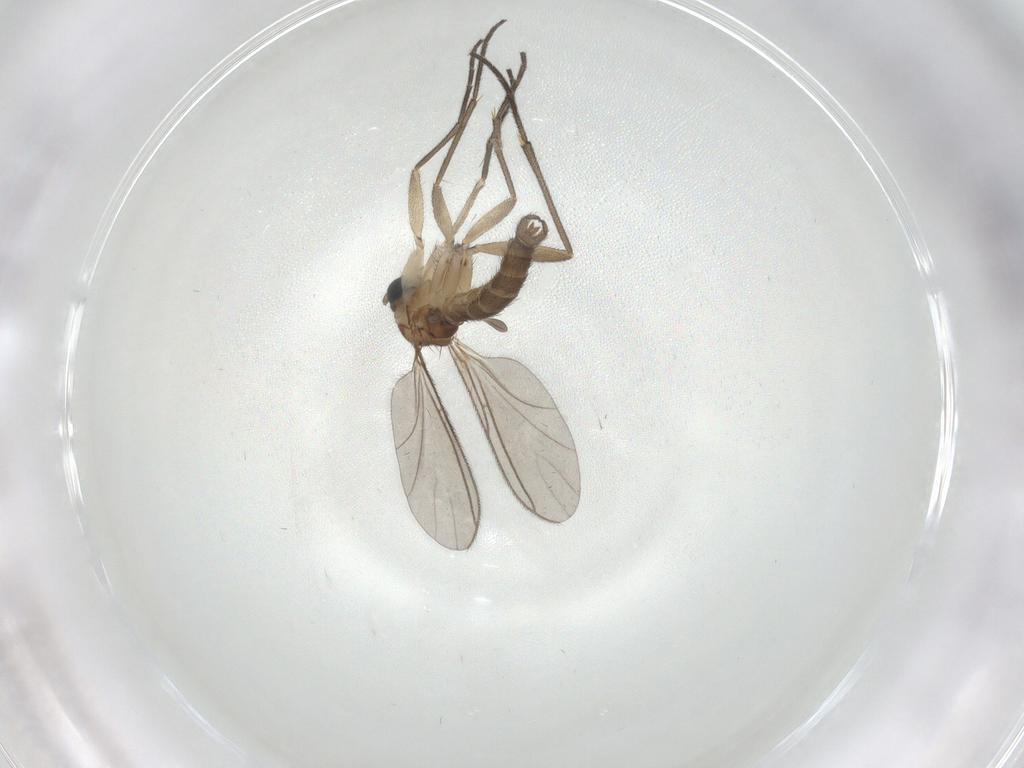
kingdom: Animalia
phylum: Arthropoda
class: Insecta
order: Diptera
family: Sciaridae
